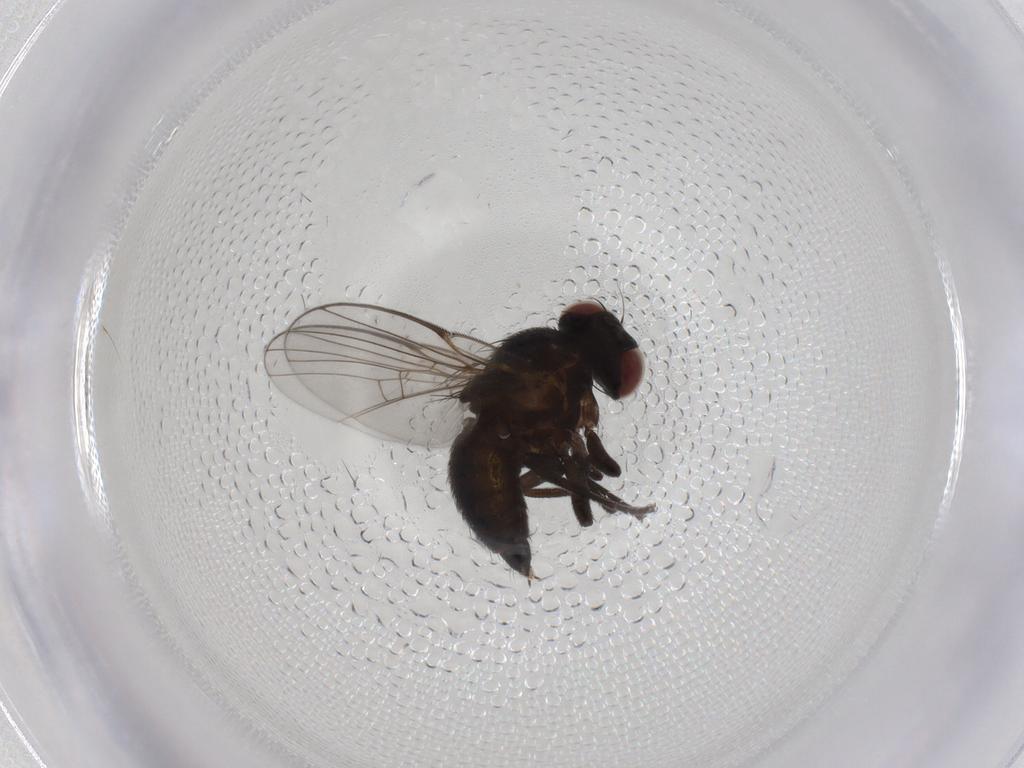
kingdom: Animalia
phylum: Arthropoda
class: Insecta
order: Diptera
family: Agromyzidae
